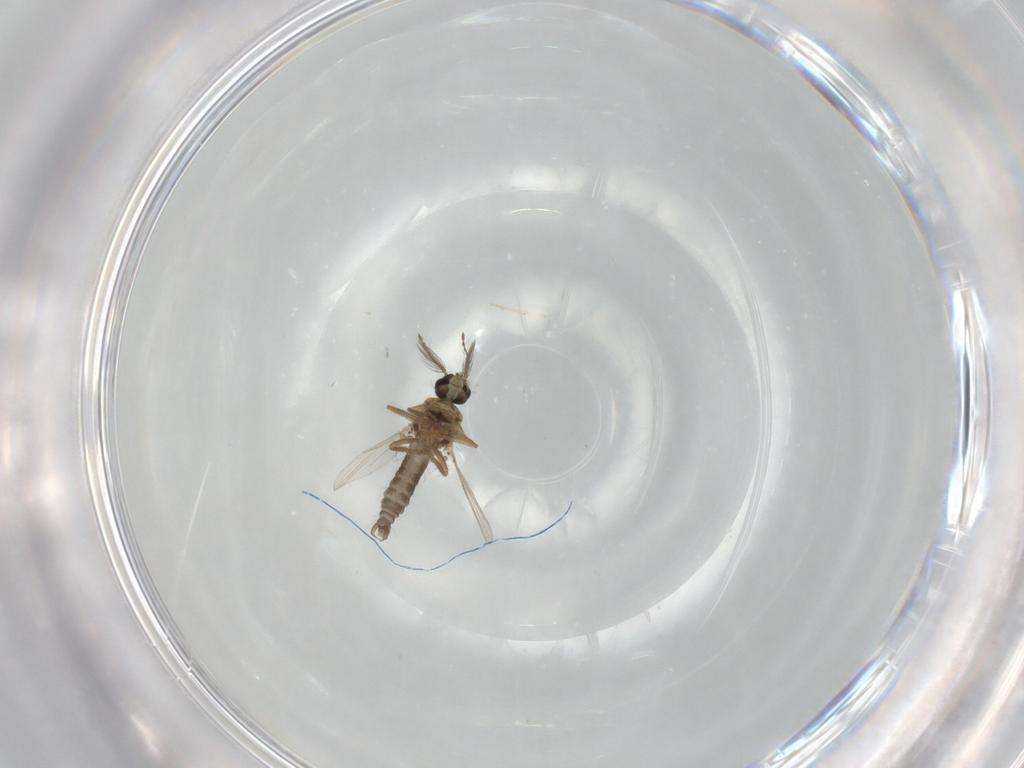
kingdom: Animalia
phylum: Arthropoda
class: Insecta
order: Diptera
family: Ceratopogonidae
